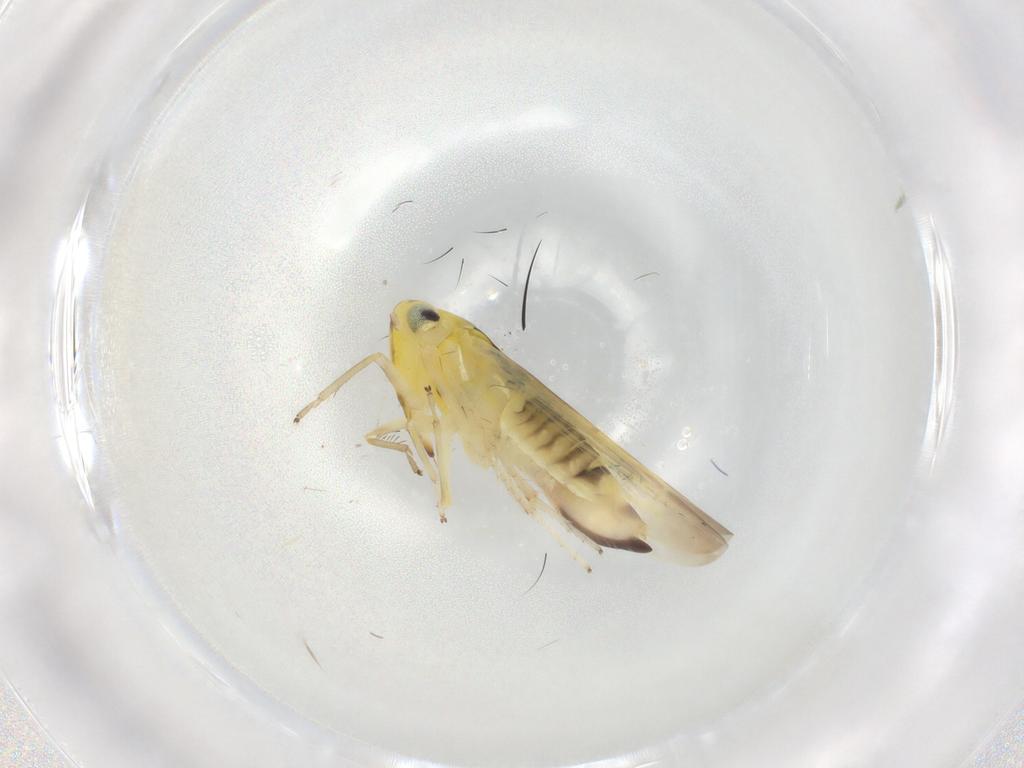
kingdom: Animalia
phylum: Arthropoda
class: Insecta
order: Hemiptera
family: Cicadellidae
